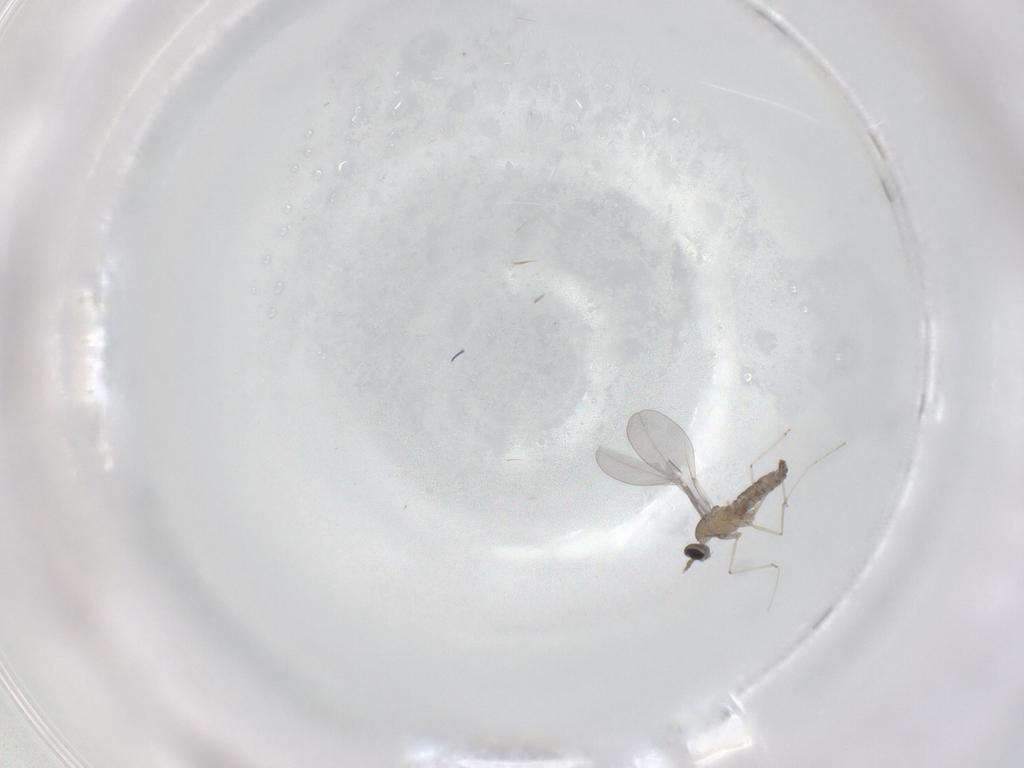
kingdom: Animalia
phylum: Arthropoda
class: Insecta
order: Diptera
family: Cecidomyiidae
